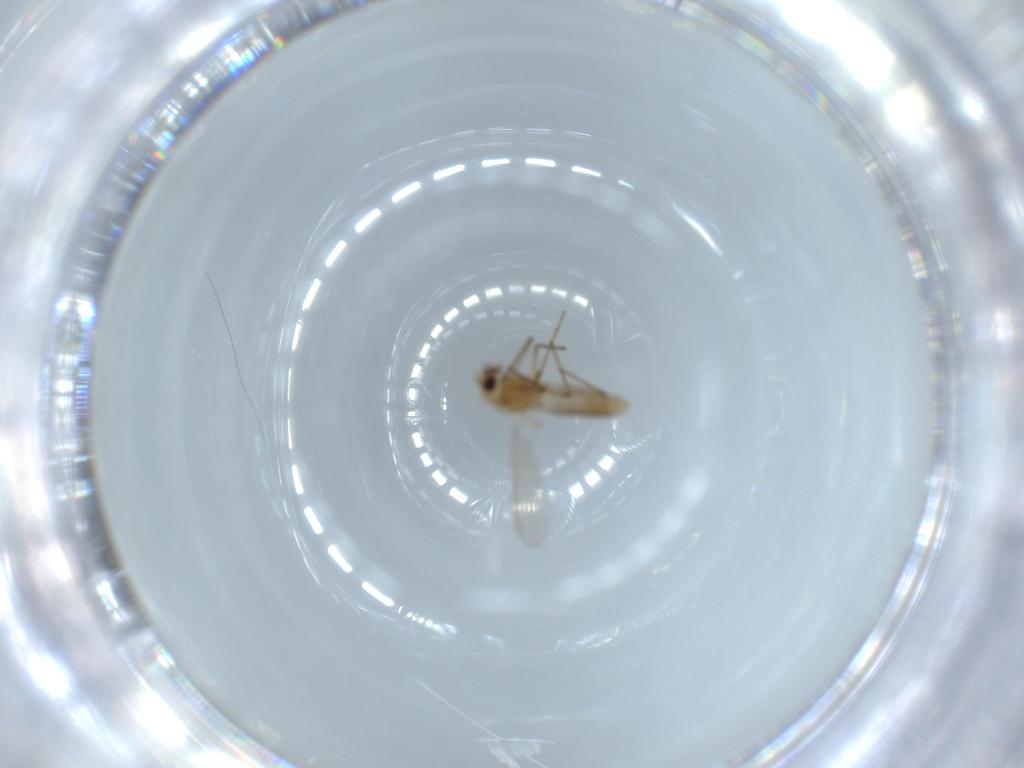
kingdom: Animalia
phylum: Arthropoda
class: Insecta
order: Diptera
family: Chironomidae
